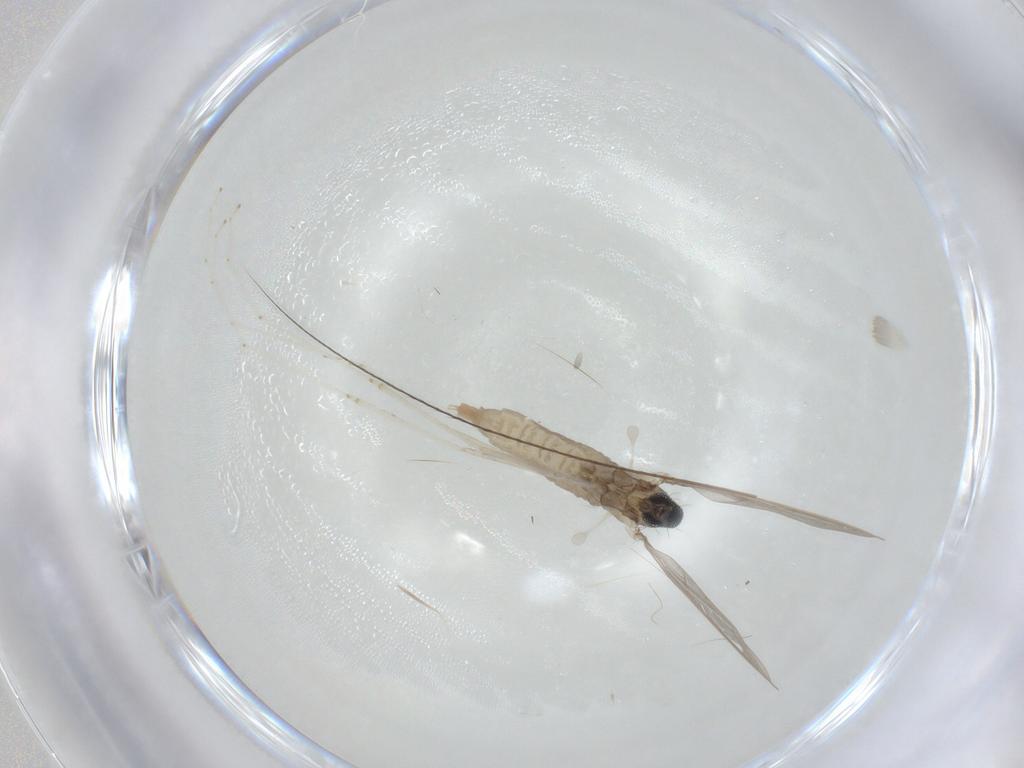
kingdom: Animalia
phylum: Arthropoda
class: Insecta
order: Diptera
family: Cecidomyiidae
